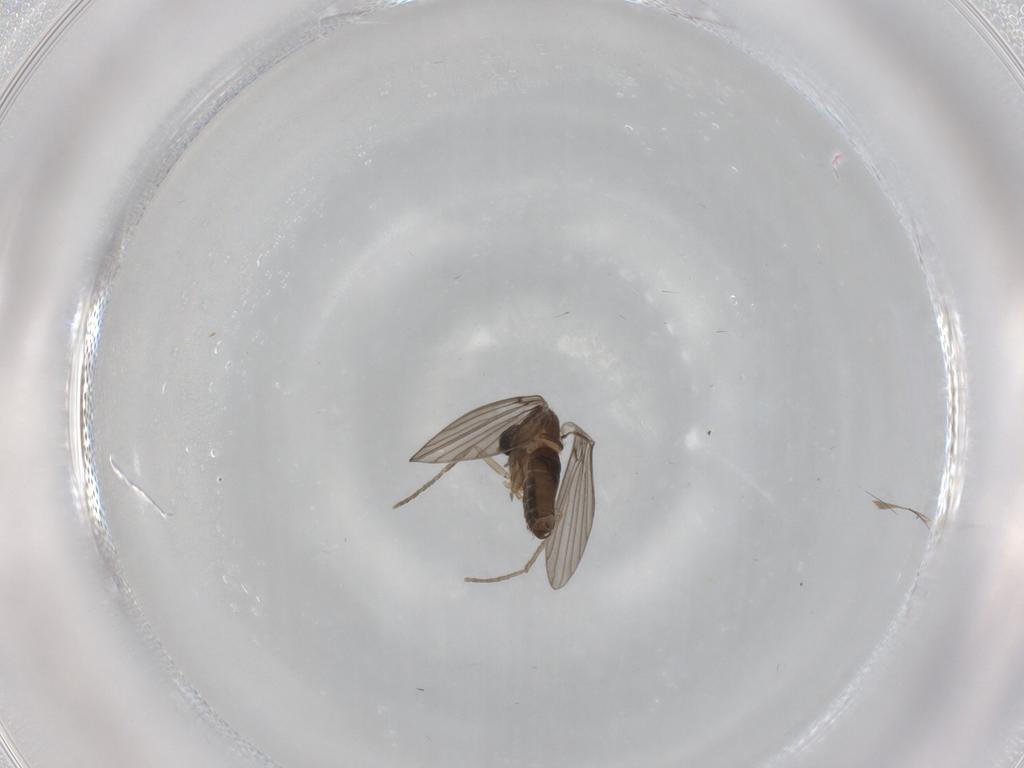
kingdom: Animalia
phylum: Arthropoda
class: Insecta
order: Diptera
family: Psychodidae
